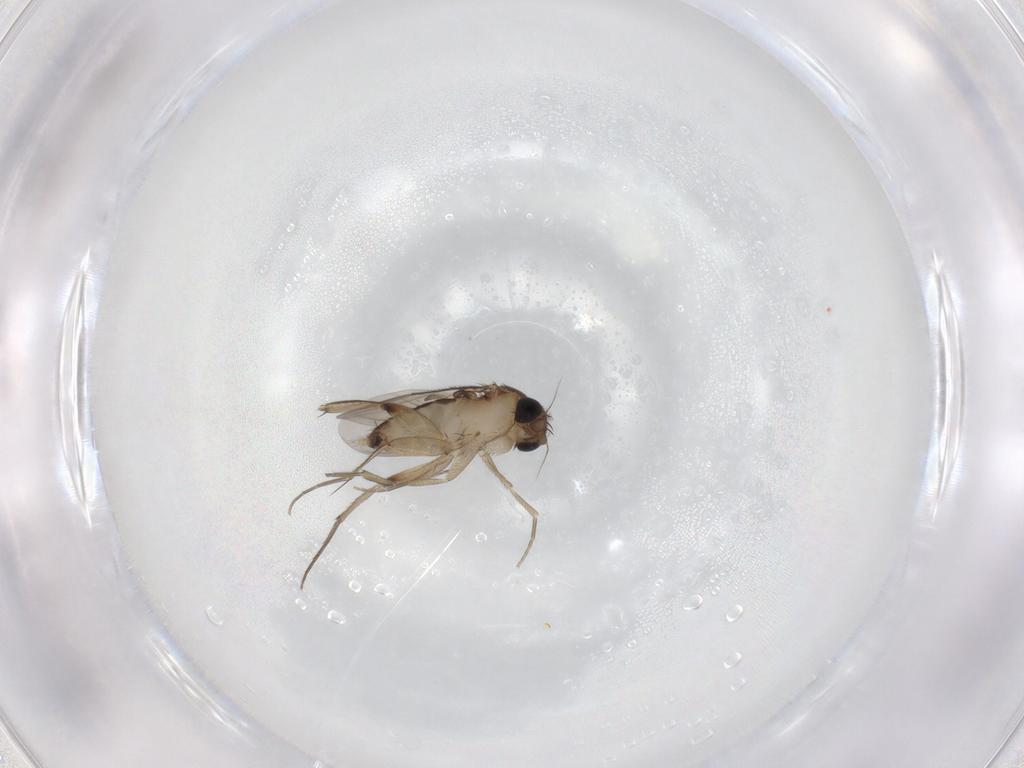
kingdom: Animalia
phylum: Arthropoda
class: Insecta
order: Diptera
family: Phoridae
